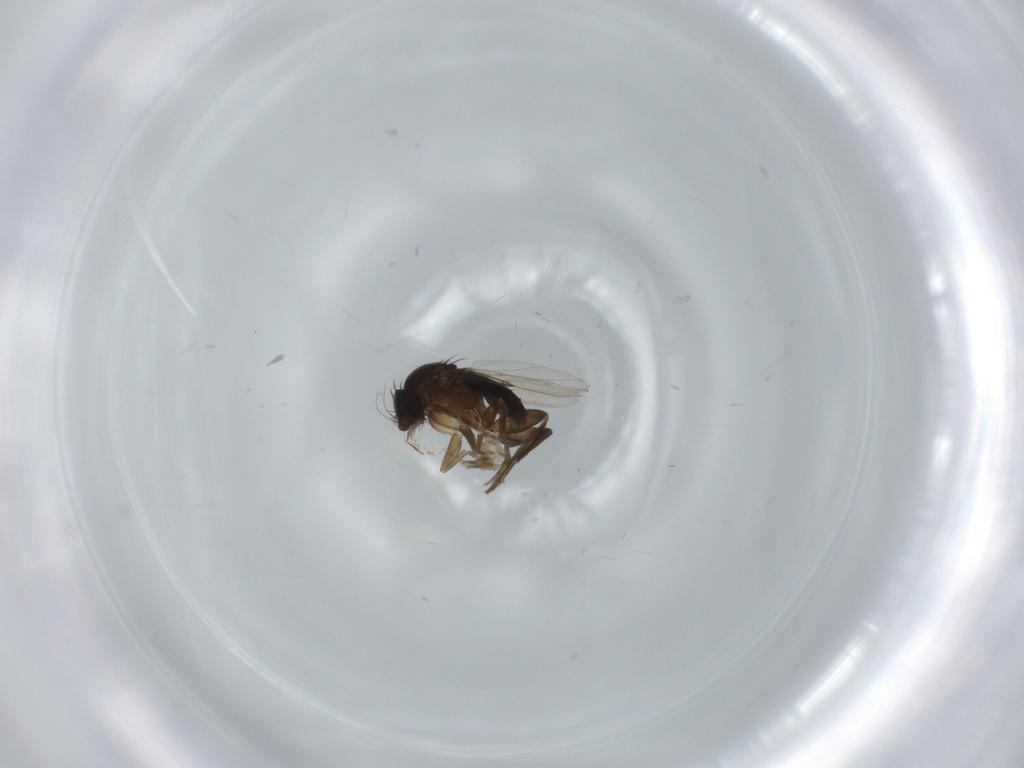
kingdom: Animalia
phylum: Arthropoda
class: Insecta
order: Diptera
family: Phoridae
